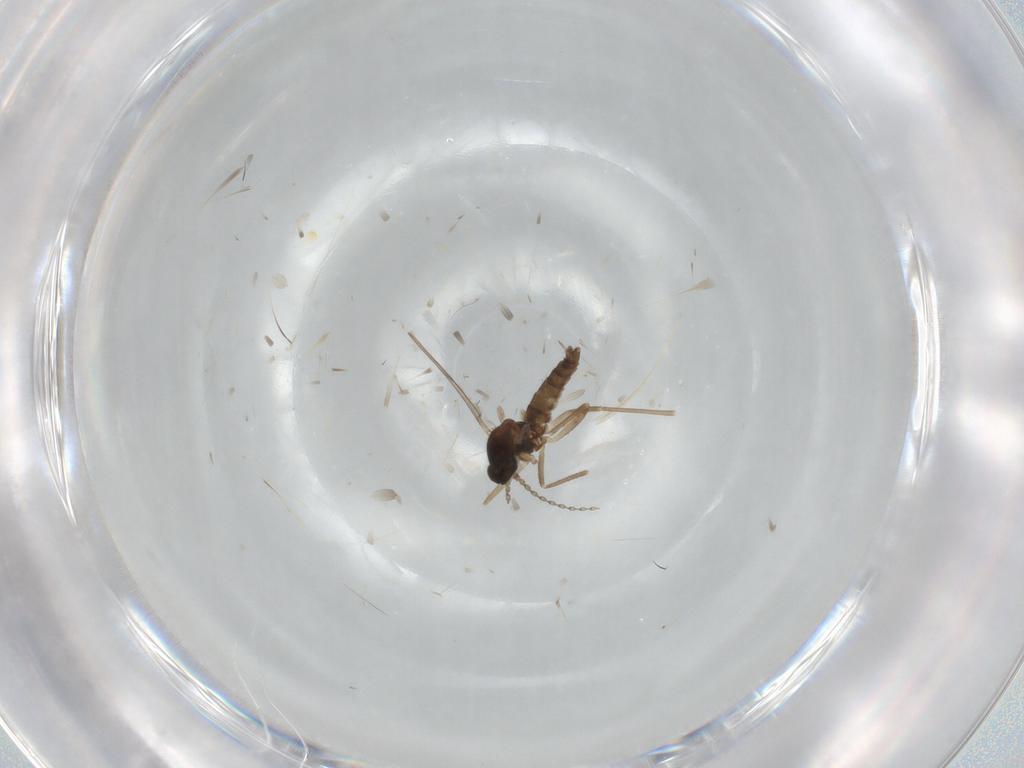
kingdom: Animalia
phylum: Arthropoda
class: Insecta
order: Diptera
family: Cecidomyiidae
